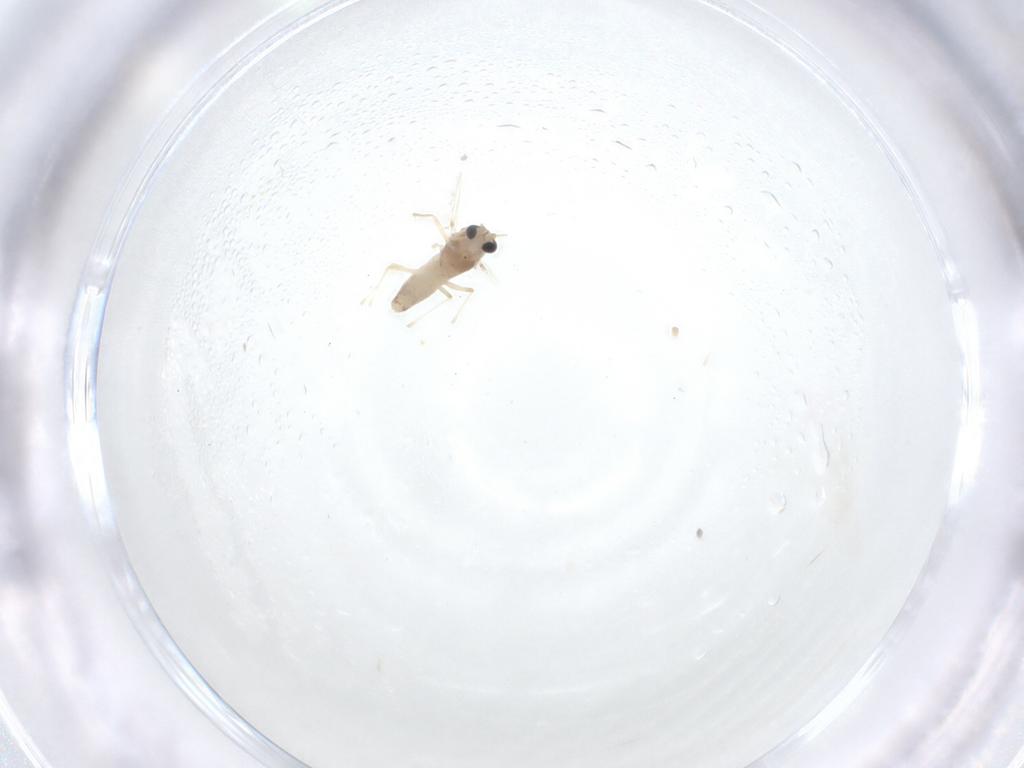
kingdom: Animalia
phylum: Arthropoda
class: Insecta
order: Diptera
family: Chironomidae
